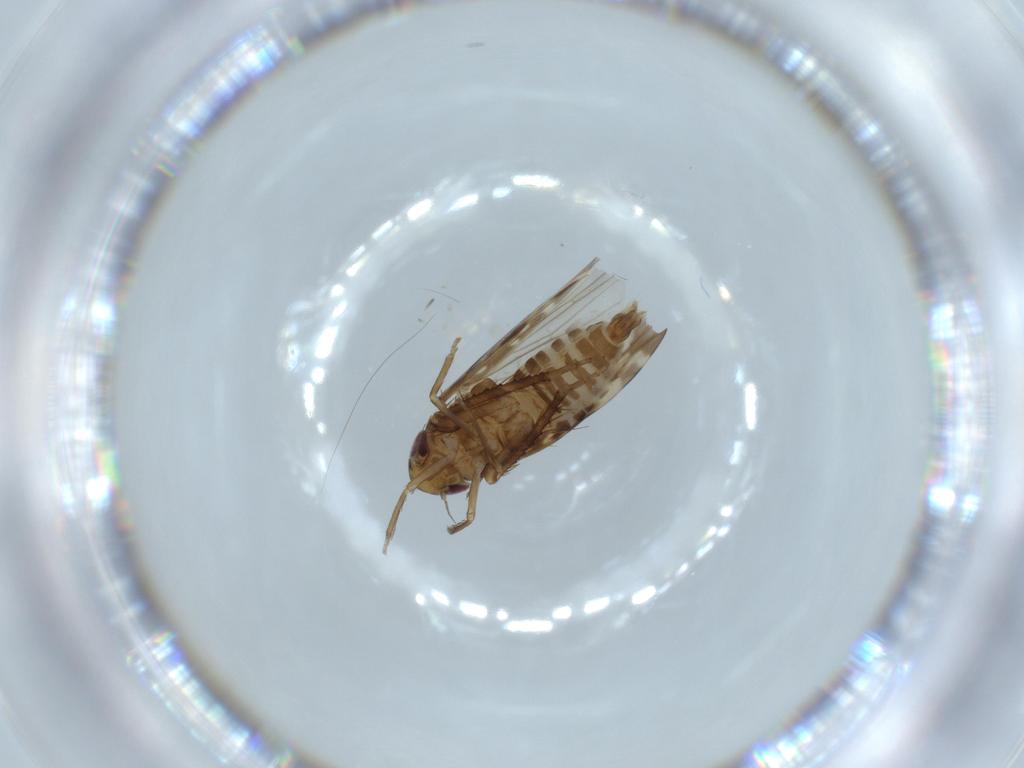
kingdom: Animalia
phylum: Arthropoda
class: Insecta
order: Hemiptera
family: Cicadellidae
